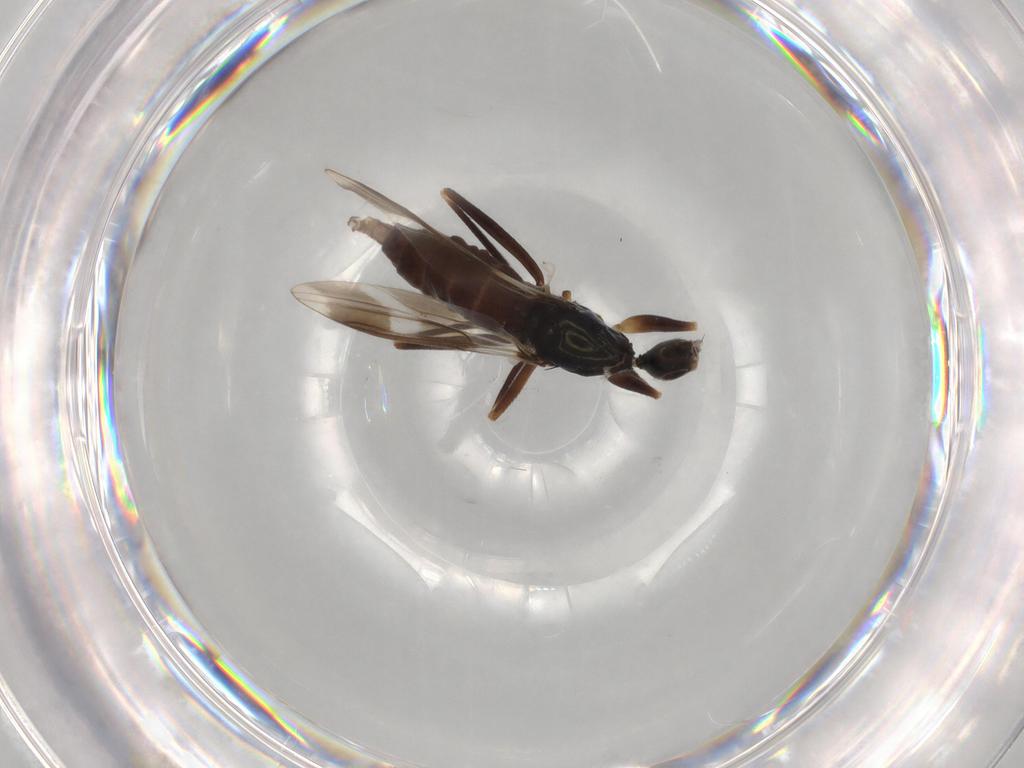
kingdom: Animalia
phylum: Arthropoda
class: Insecta
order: Diptera
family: Hybotidae
